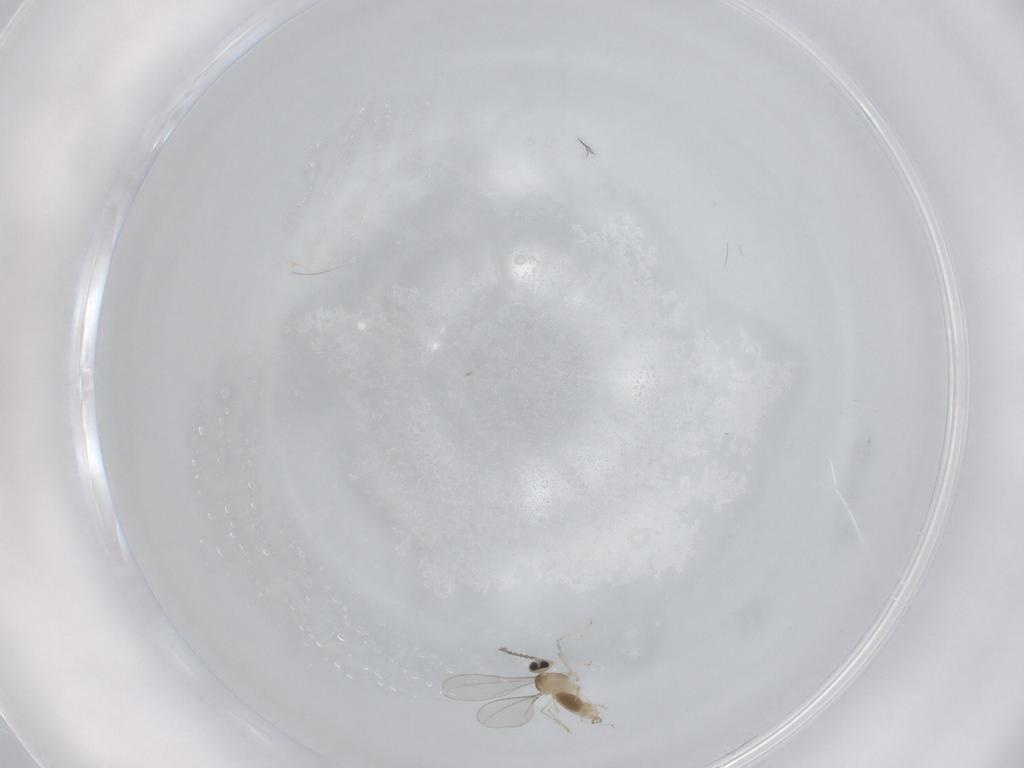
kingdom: Animalia
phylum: Arthropoda
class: Insecta
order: Diptera
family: Cecidomyiidae
